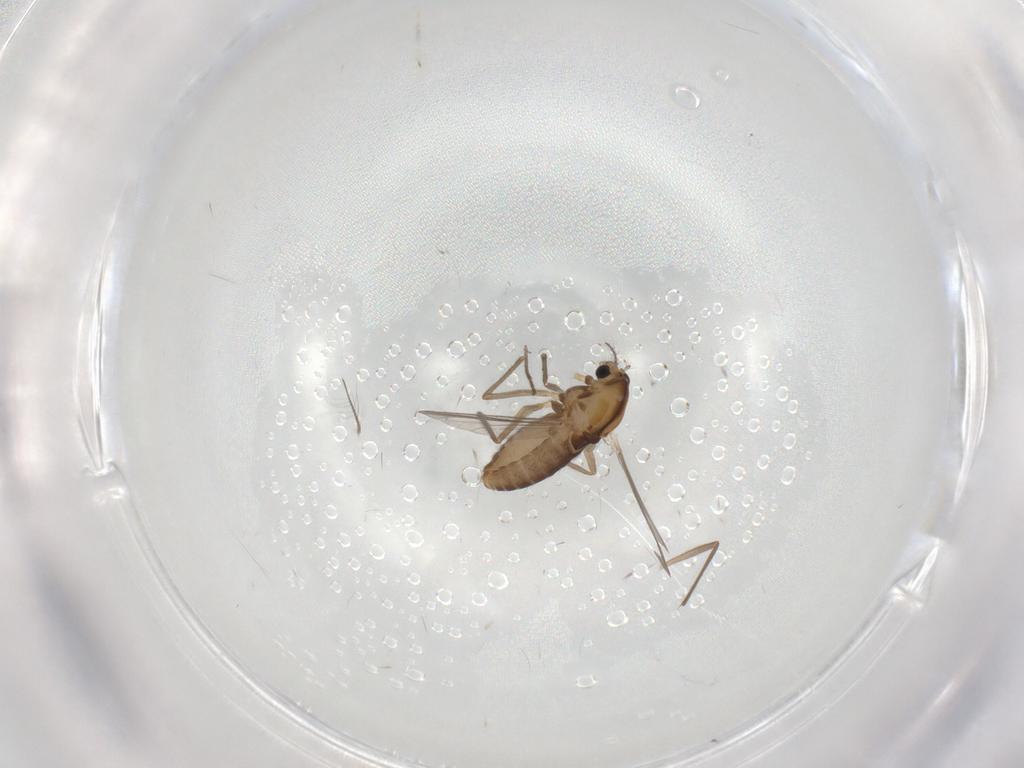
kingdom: Animalia
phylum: Arthropoda
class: Insecta
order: Diptera
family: Chironomidae
